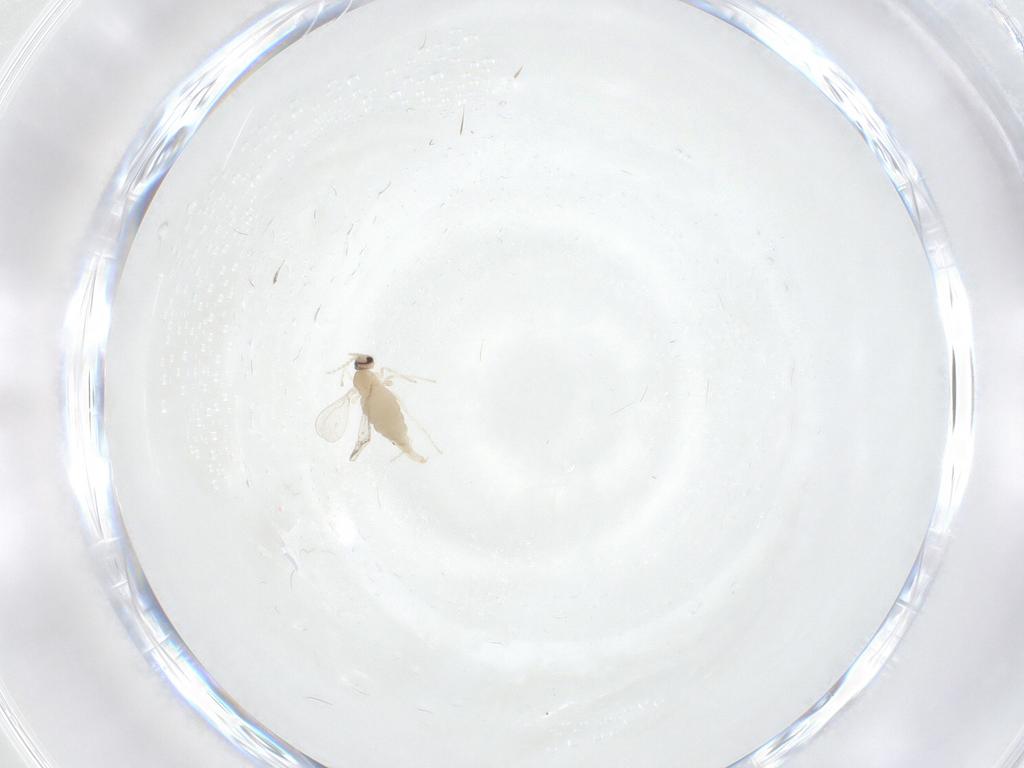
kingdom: Animalia
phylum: Arthropoda
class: Insecta
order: Diptera
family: Cecidomyiidae
